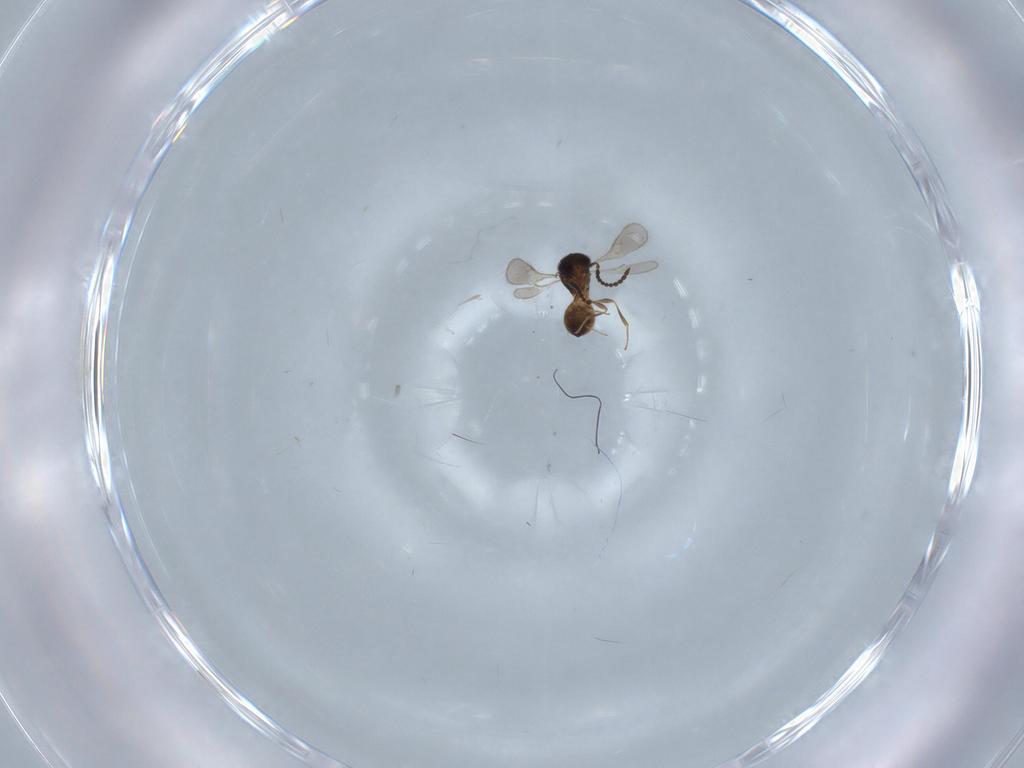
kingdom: Animalia
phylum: Arthropoda
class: Insecta
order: Hymenoptera
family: Scelionidae
